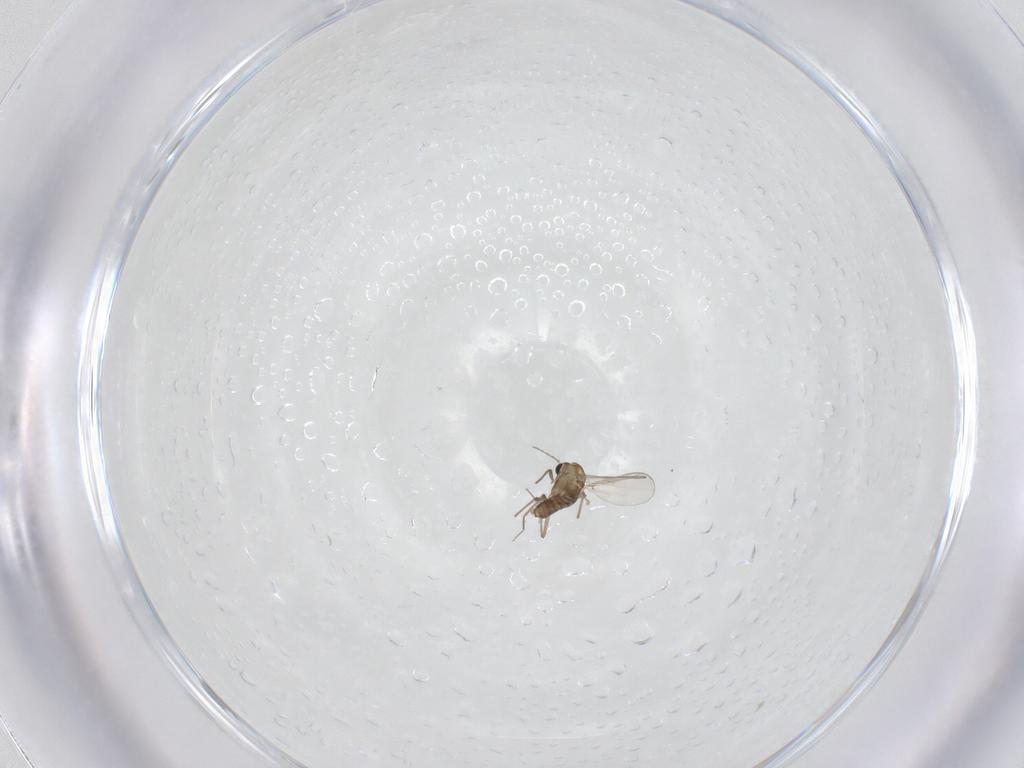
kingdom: Animalia
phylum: Arthropoda
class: Insecta
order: Diptera
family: Chironomidae
